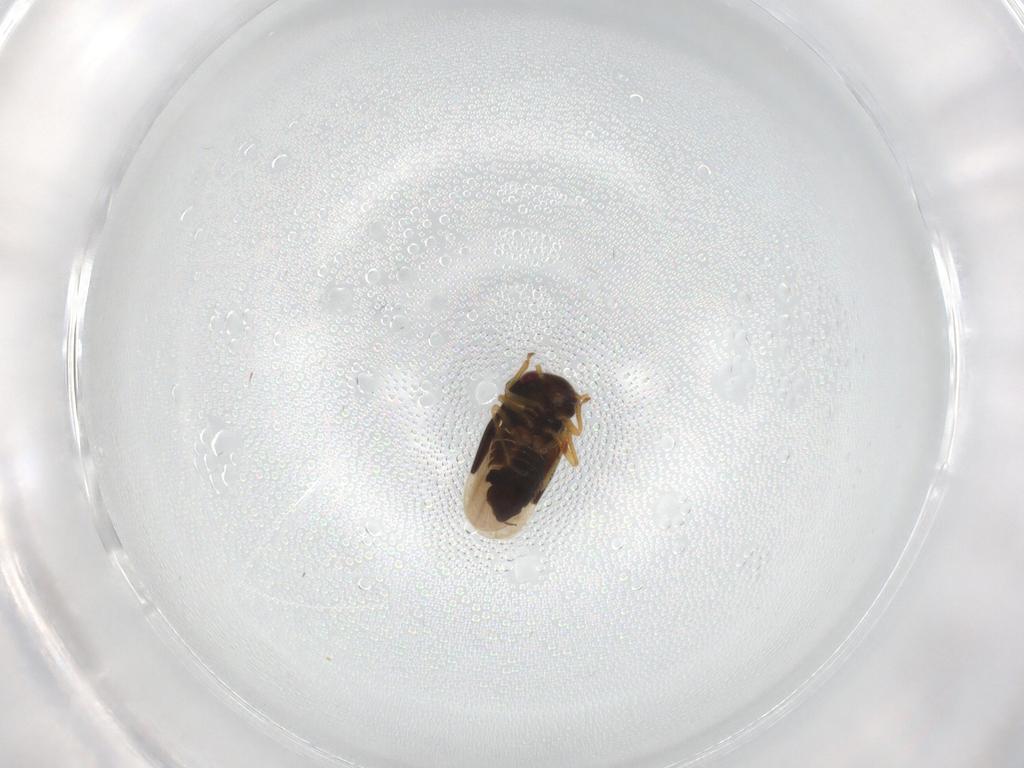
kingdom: Animalia
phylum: Arthropoda
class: Insecta
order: Hemiptera
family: Schizopteridae
